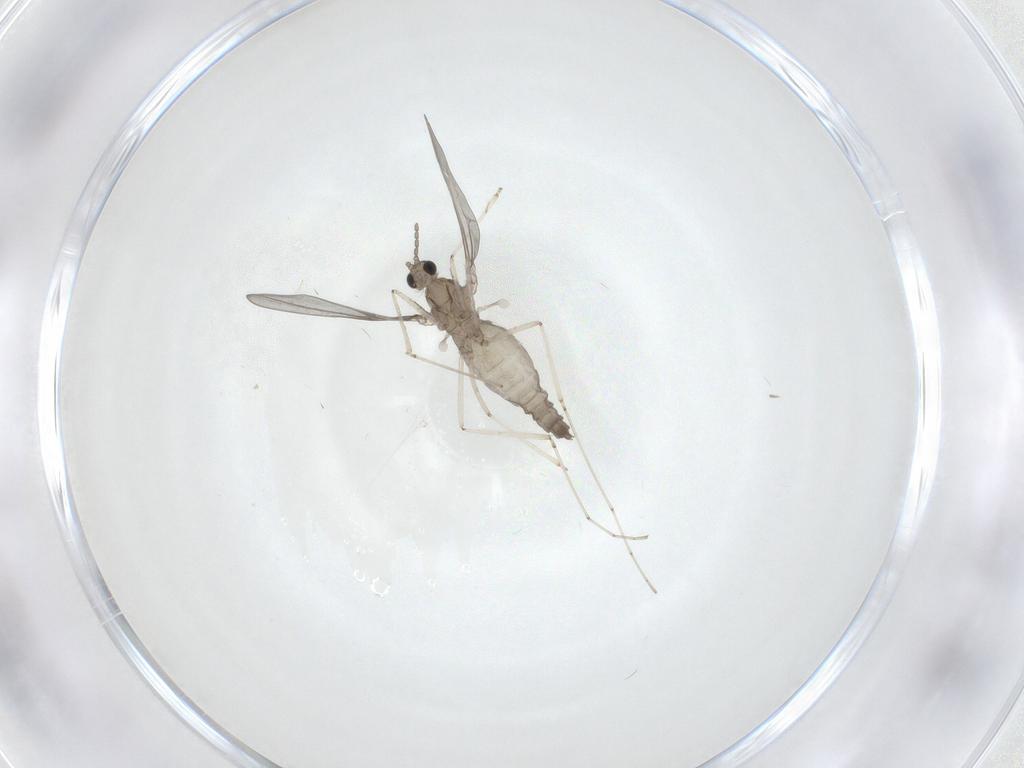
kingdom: Animalia
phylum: Arthropoda
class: Insecta
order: Diptera
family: Cecidomyiidae
